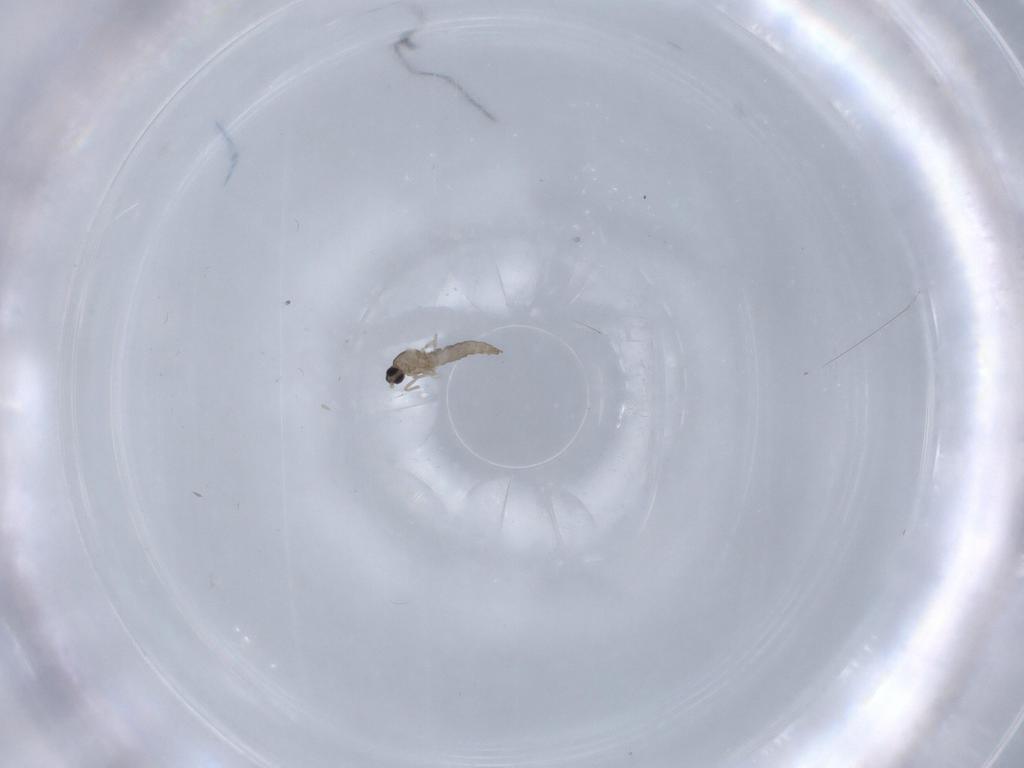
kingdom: Animalia
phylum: Arthropoda
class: Insecta
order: Diptera
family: Cecidomyiidae
